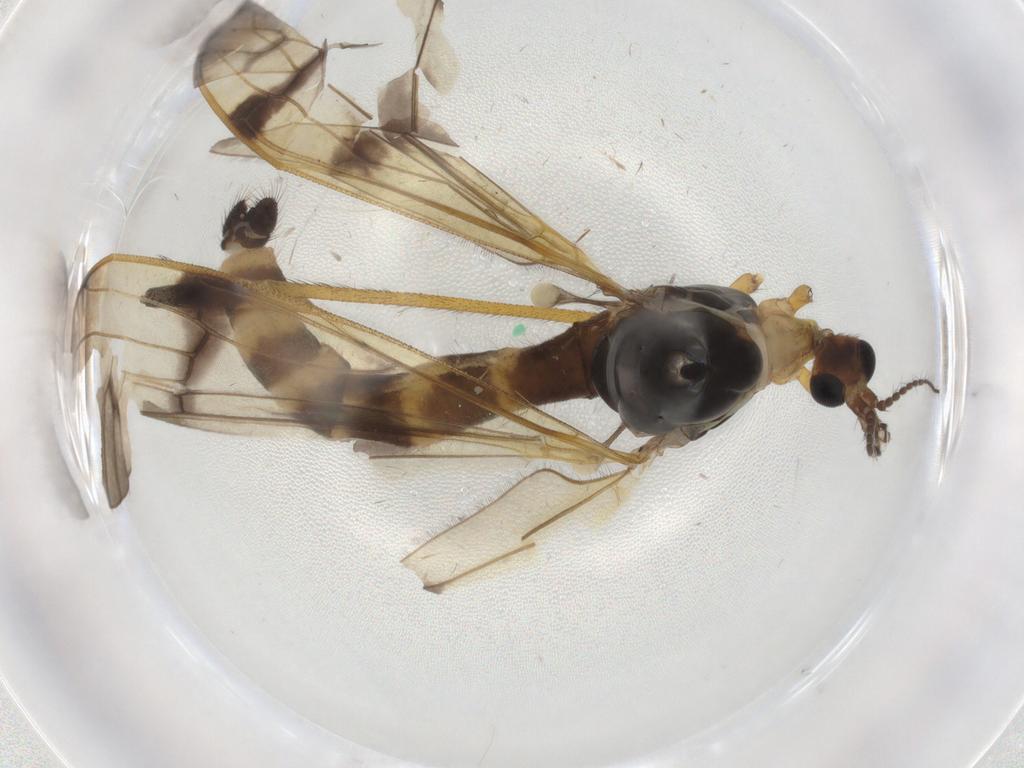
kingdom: Animalia
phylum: Arthropoda
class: Insecta
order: Diptera
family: Limoniidae
